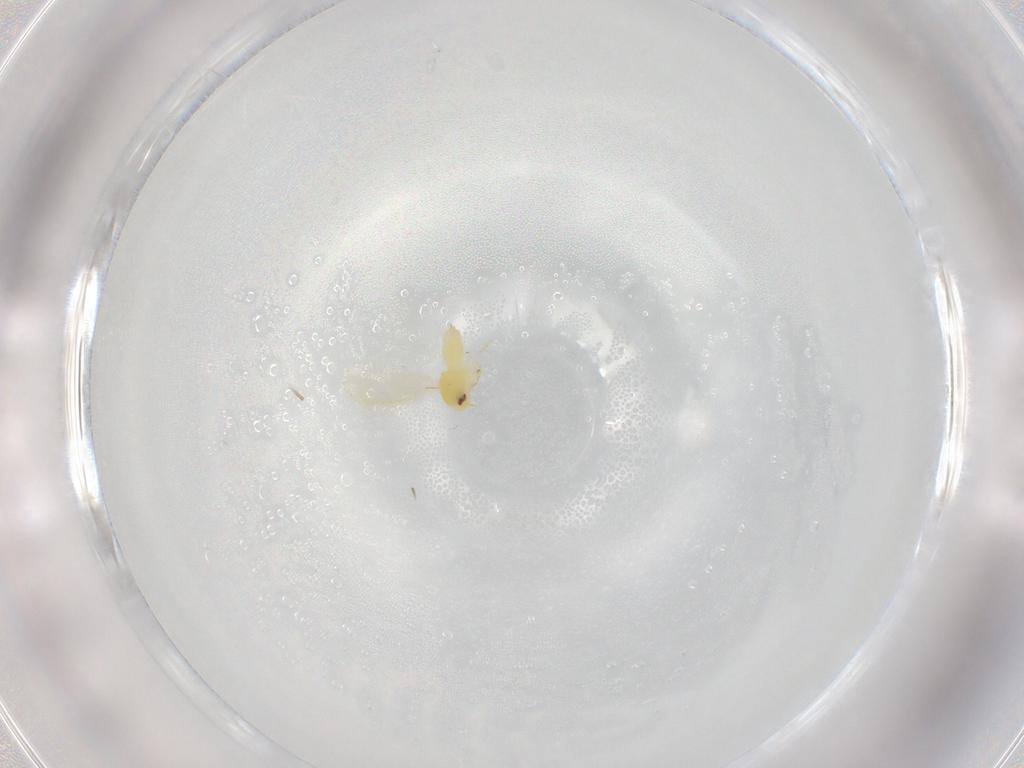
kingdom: Animalia
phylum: Arthropoda
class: Insecta
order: Hemiptera
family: Aleyrodidae
